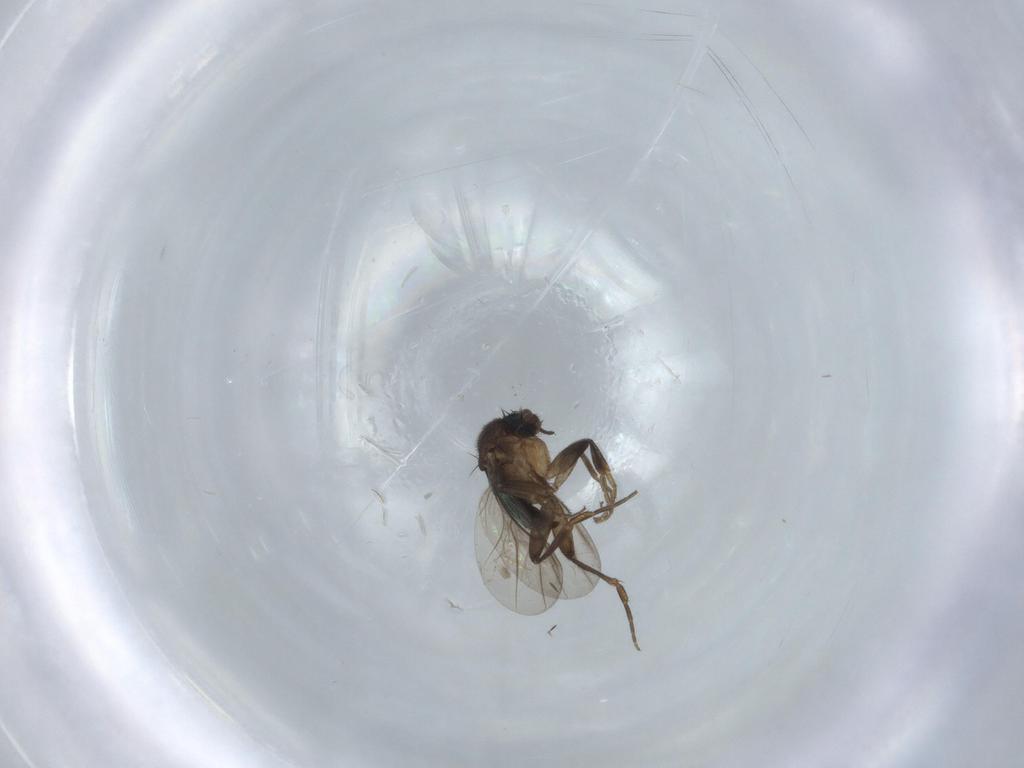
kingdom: Animalia
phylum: Arthropoda
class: Insecta
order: Diptera
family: Phoridae
